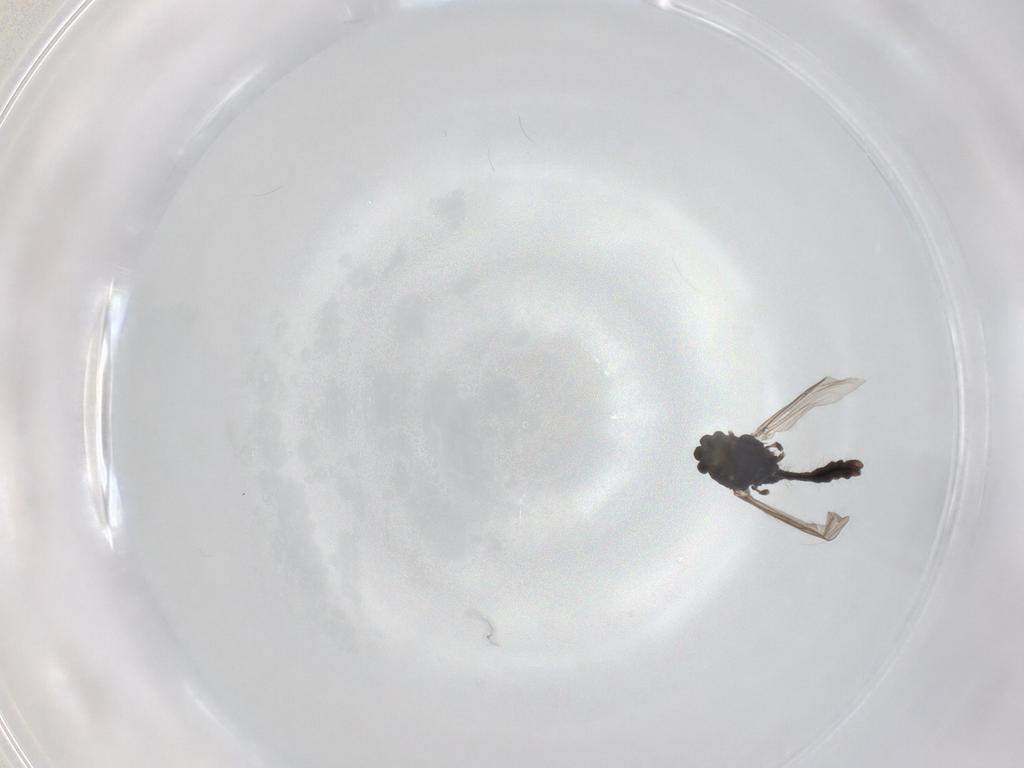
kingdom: Animalia
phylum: Arthropoda
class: Insecta
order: Diptera
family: Chironomidae
